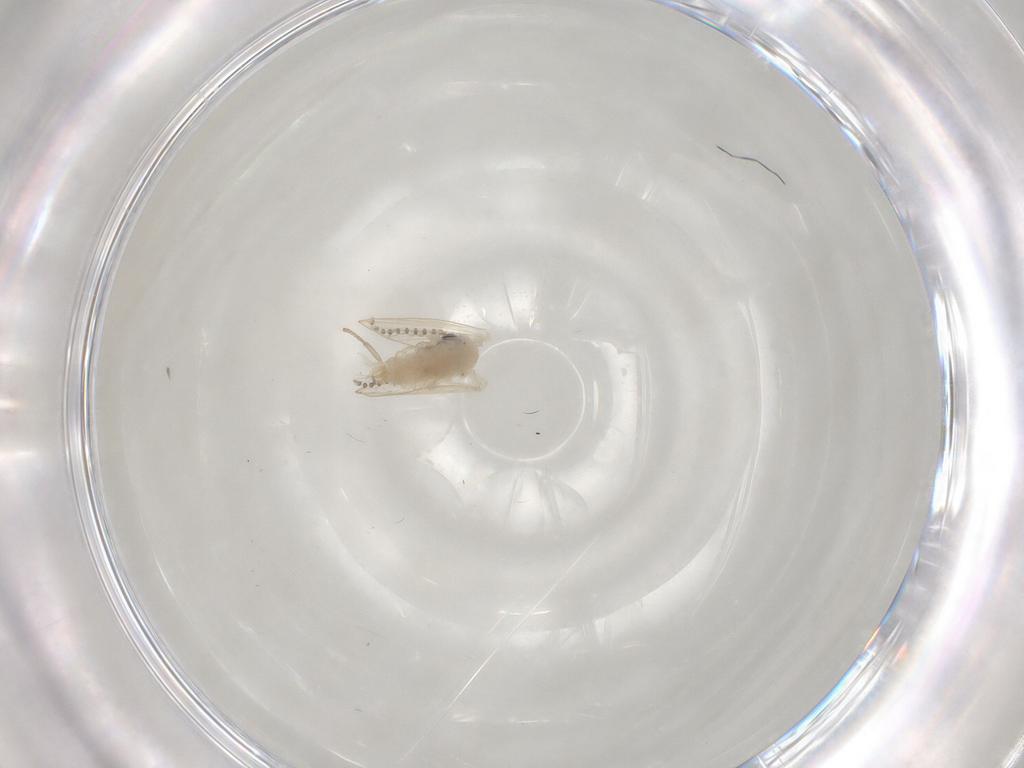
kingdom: Animalia
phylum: Arthropoda
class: Insecta
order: Diptera
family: Psychodidae
